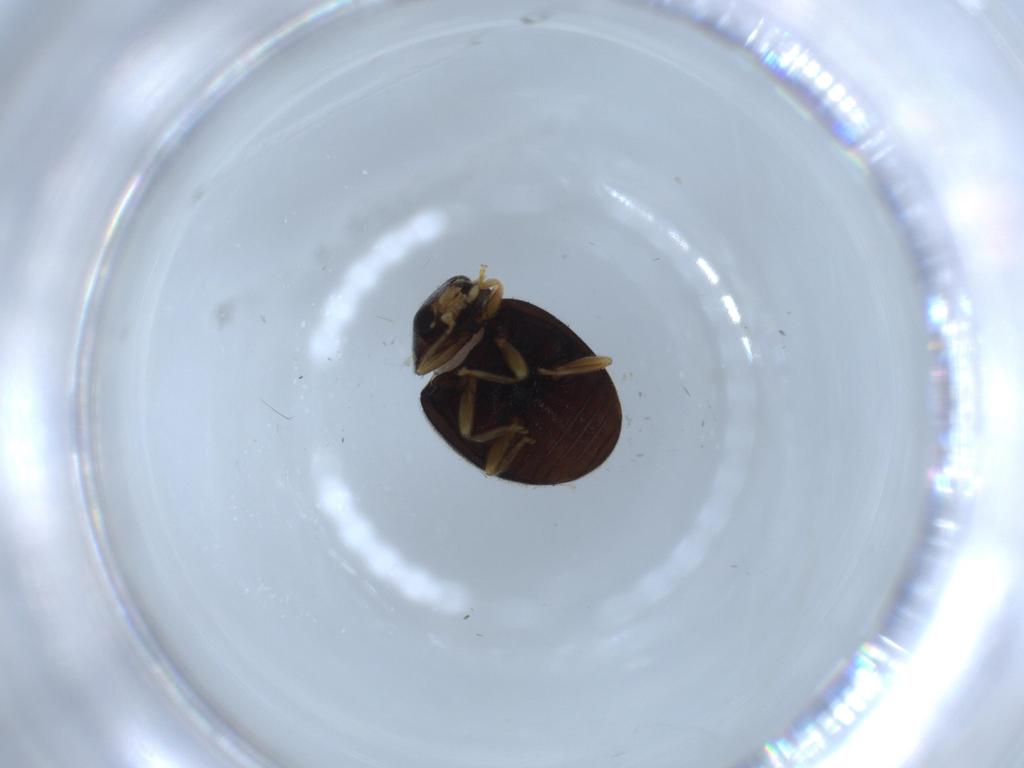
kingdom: Animalia
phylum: Arthropoda
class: Insecta
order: Coleoptera
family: Coccinellidae
